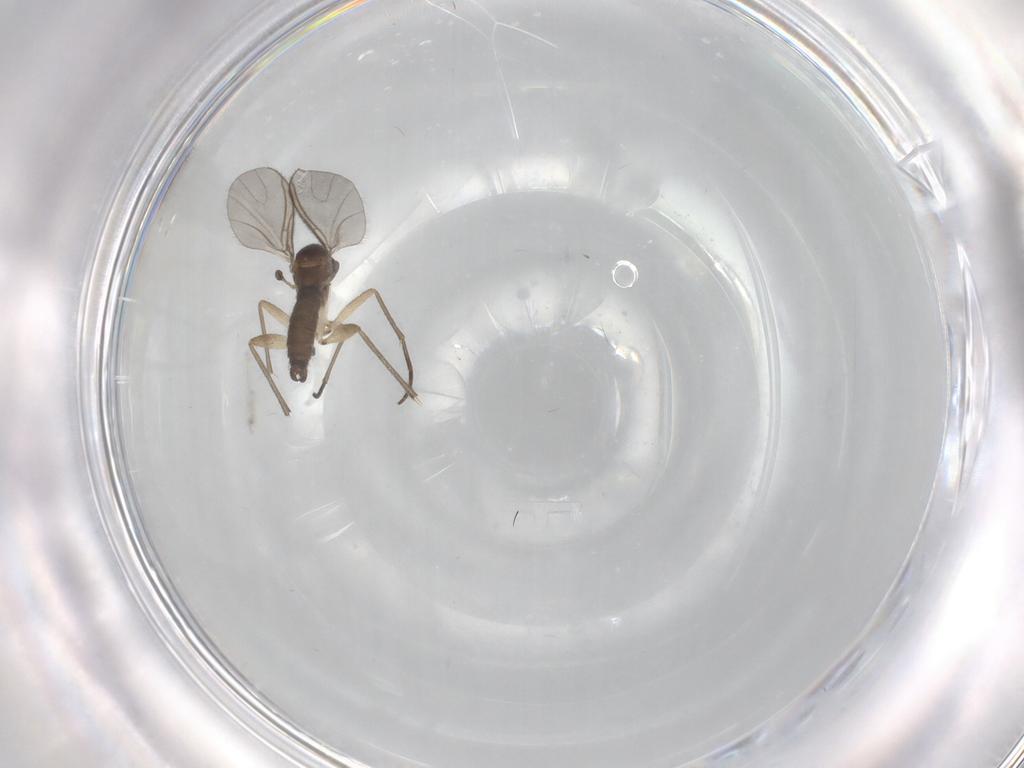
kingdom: Animalia
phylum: Arthropoda
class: Insecta
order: Diptera
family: Sciaridae
